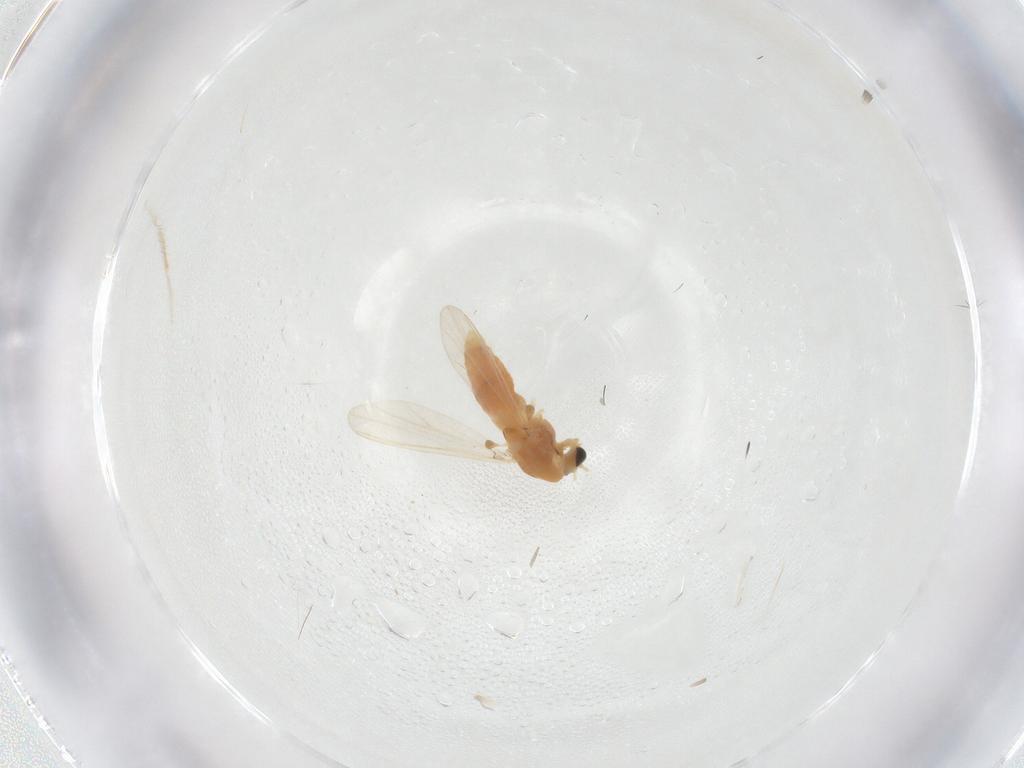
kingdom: Animalia
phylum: Arthropoda
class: Insecta
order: Diptera
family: Chironomidae
